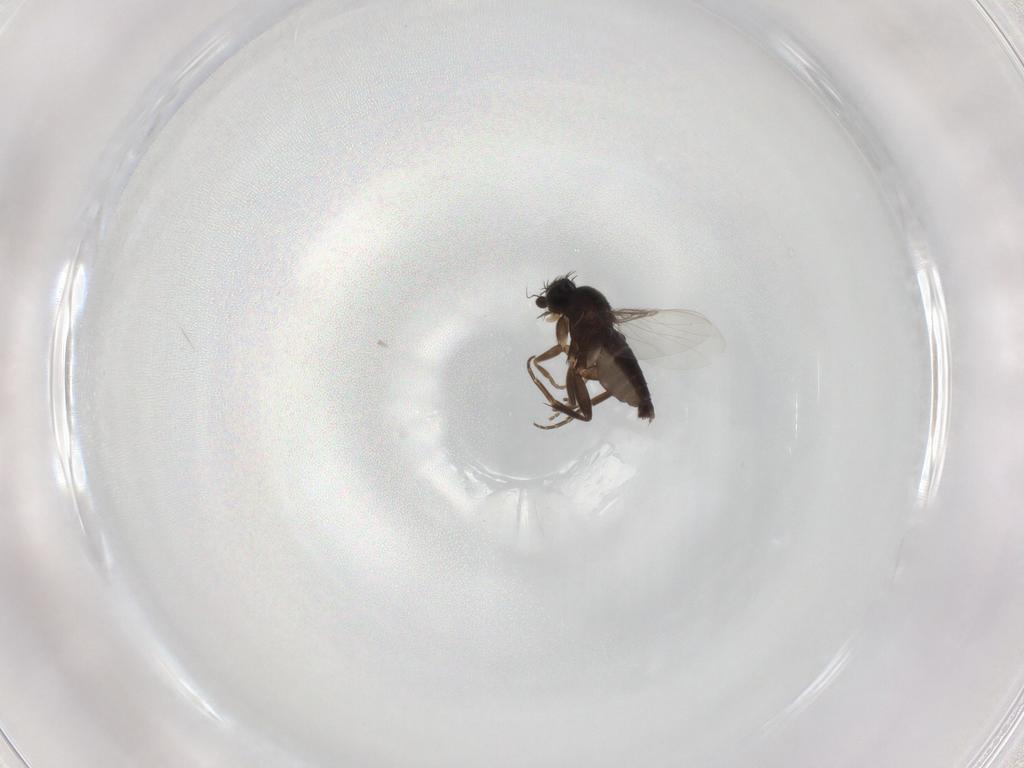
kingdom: Animalia
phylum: Arthropoda
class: Insecta
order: Diptera
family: Phoridae
